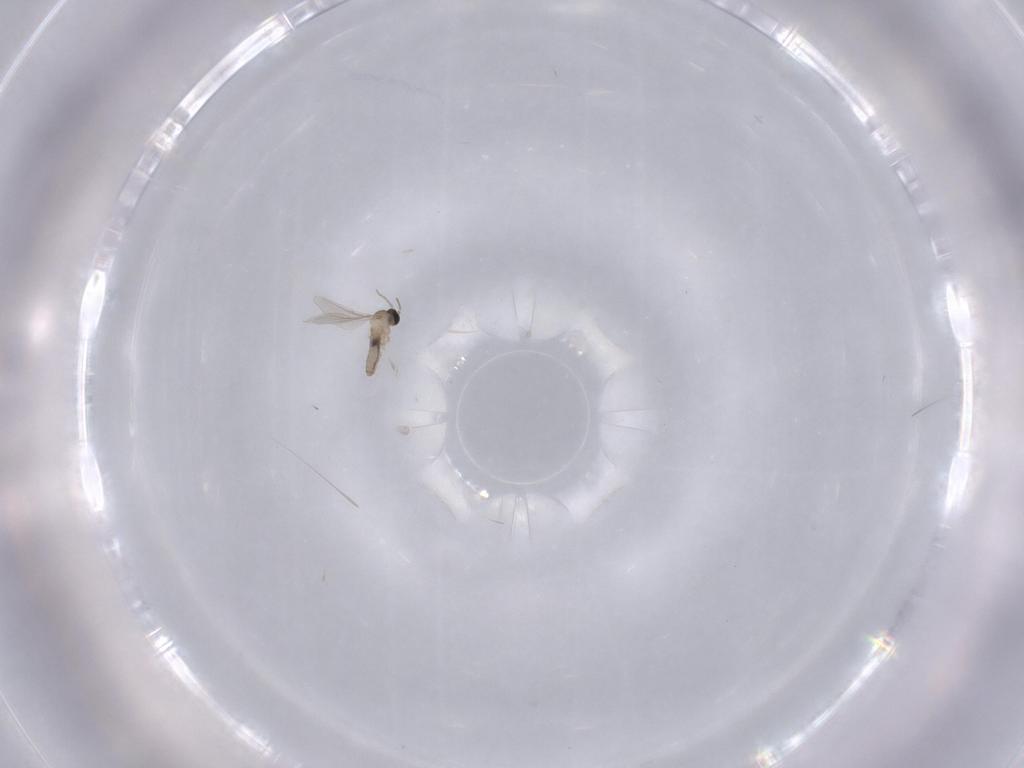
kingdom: Animalia
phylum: Arthropoda
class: Insecta
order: Diptera
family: Cecidomyiidae
